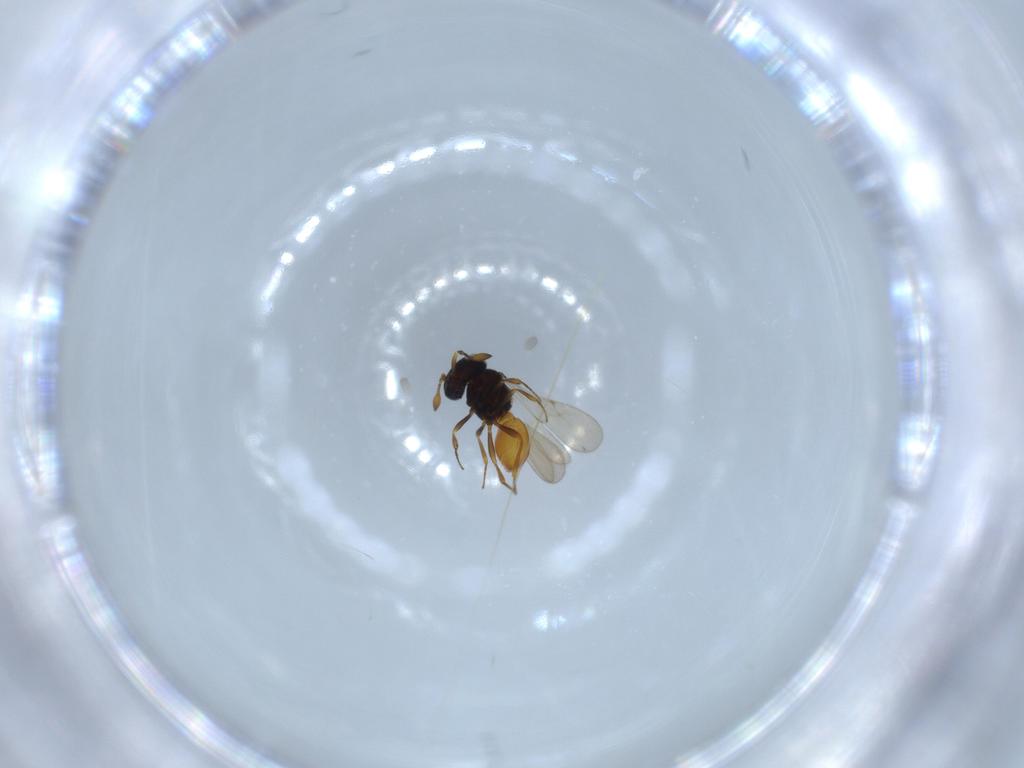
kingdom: Animalia
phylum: Arthropoda
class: Insecta
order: Hymenoptera
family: Scelionidae
